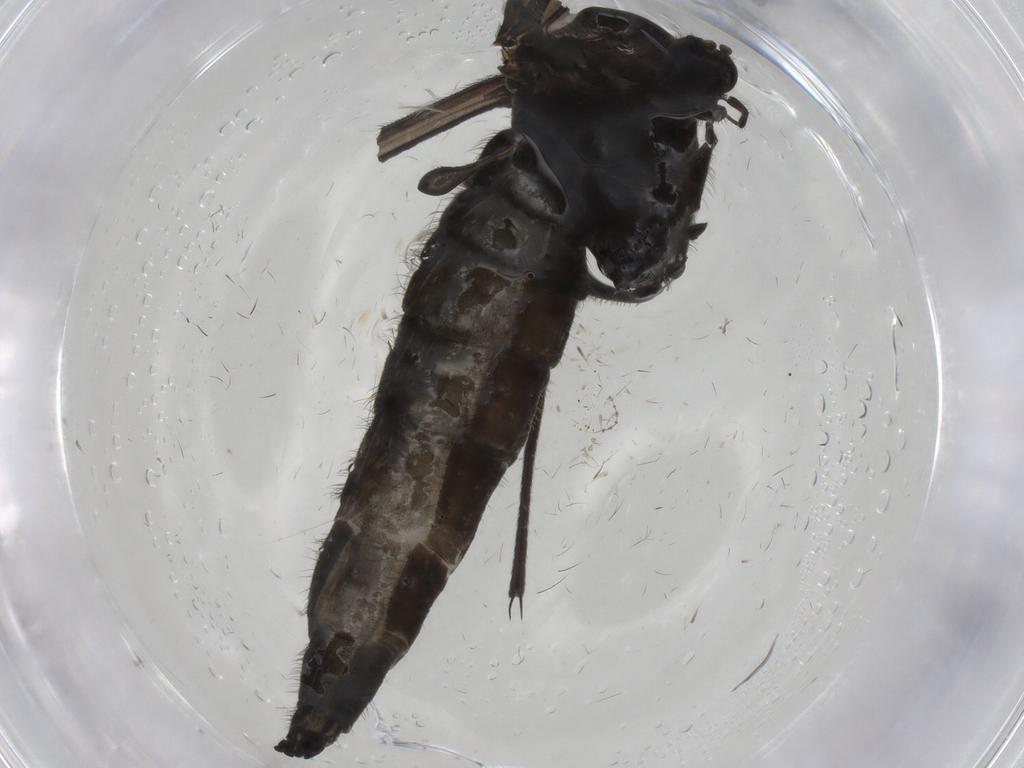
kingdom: Animalia
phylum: Arthropoda
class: Insecta
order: Diptera
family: Sciaridae
